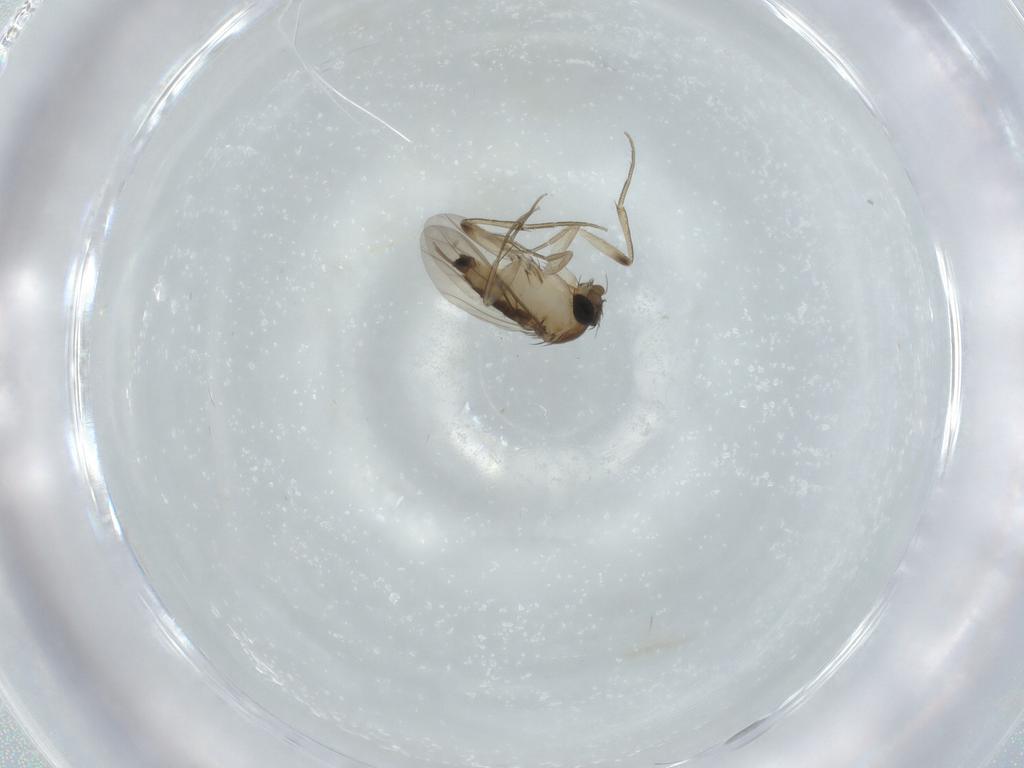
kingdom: Animalia
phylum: Arthropoda
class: Insecta
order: Diptera
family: Phoridae
